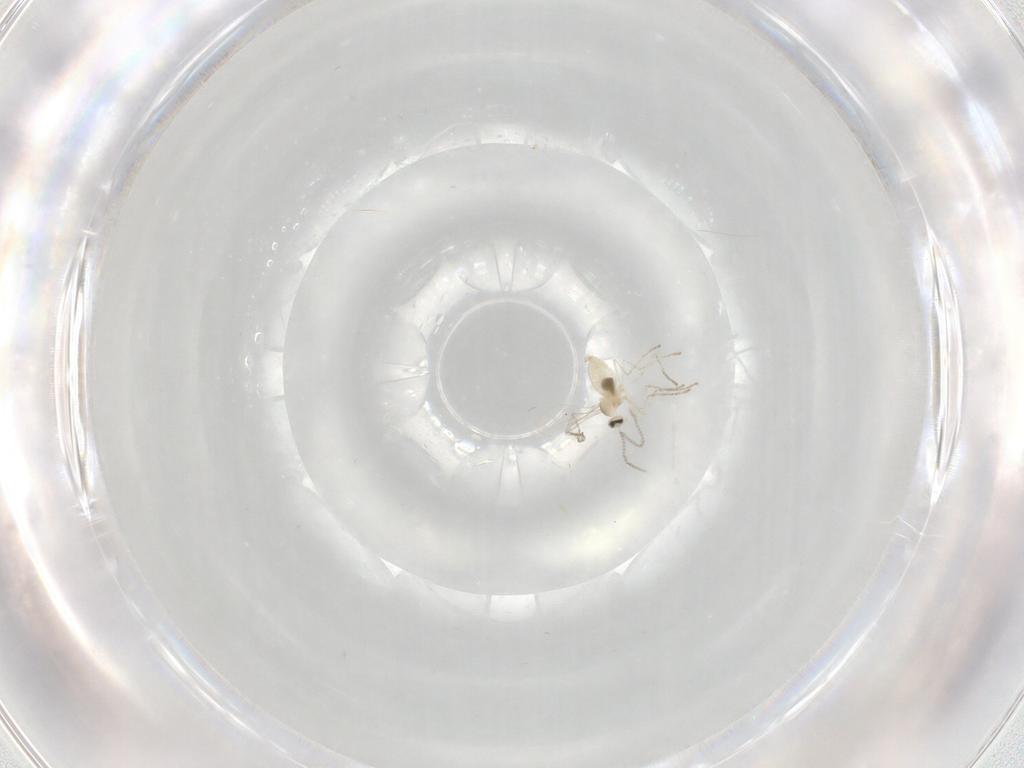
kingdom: Animalia
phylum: Arthropoda
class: Insecta
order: Diptera
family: Cecidomyiidae
